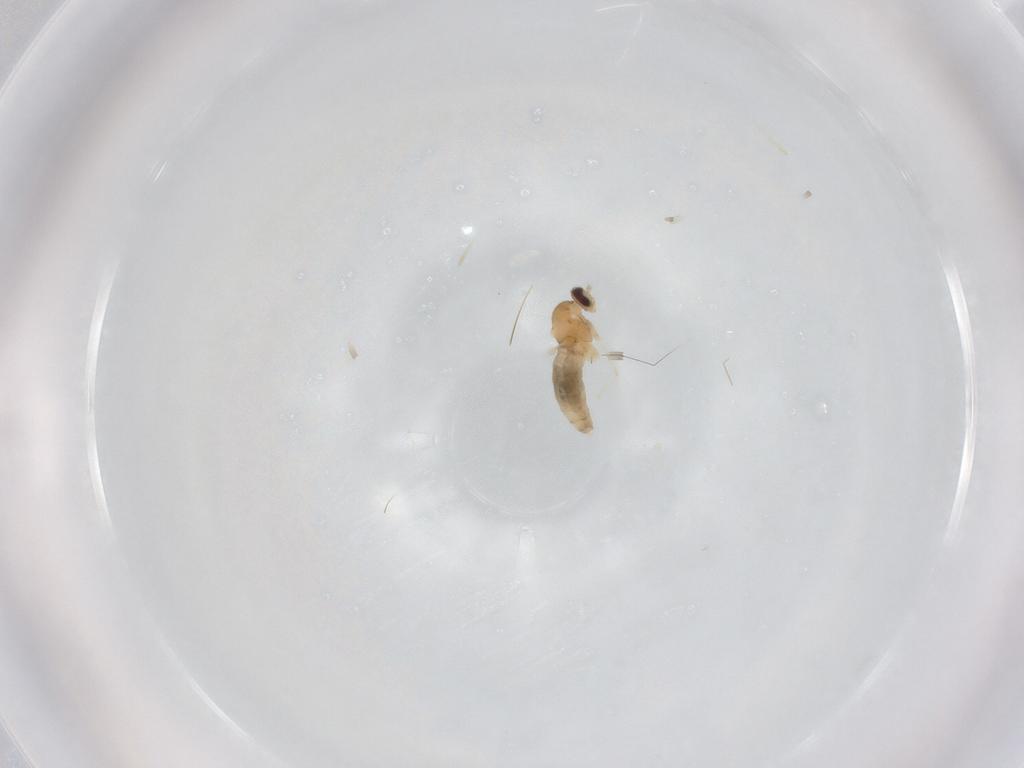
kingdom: Animalia
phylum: Arthropoda
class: Insecta
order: Diptera
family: Cecidomyiidae
